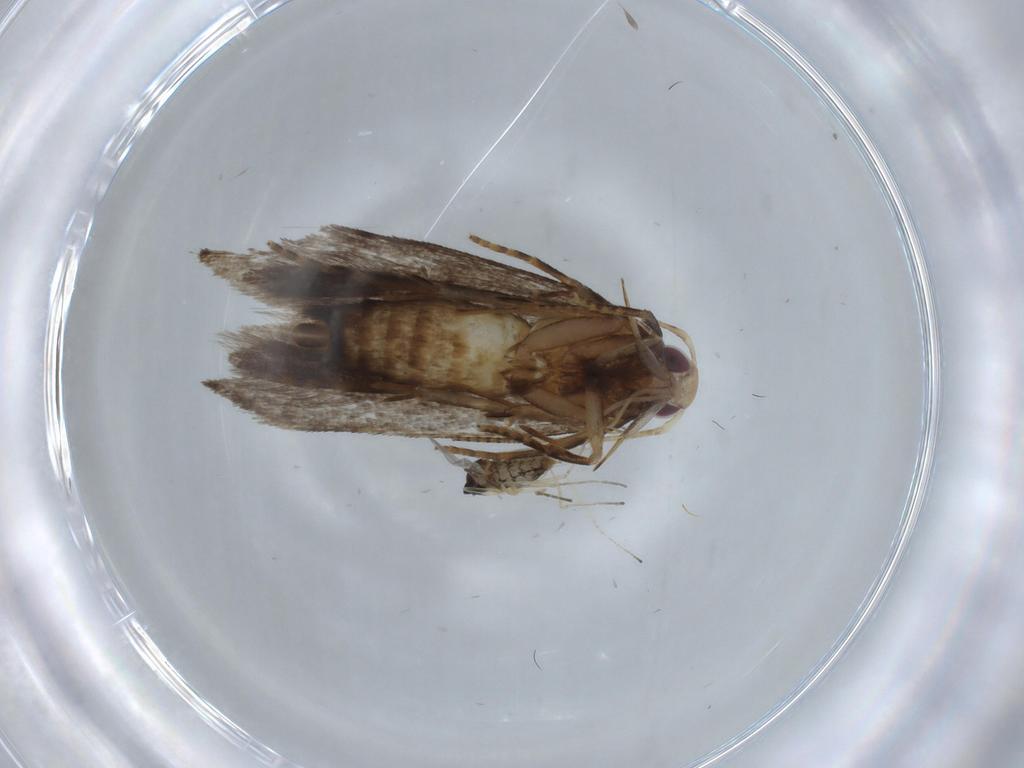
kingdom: Animalia
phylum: Arthropoda
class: Insecta
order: Lepidoptera
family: Gelechiidae
